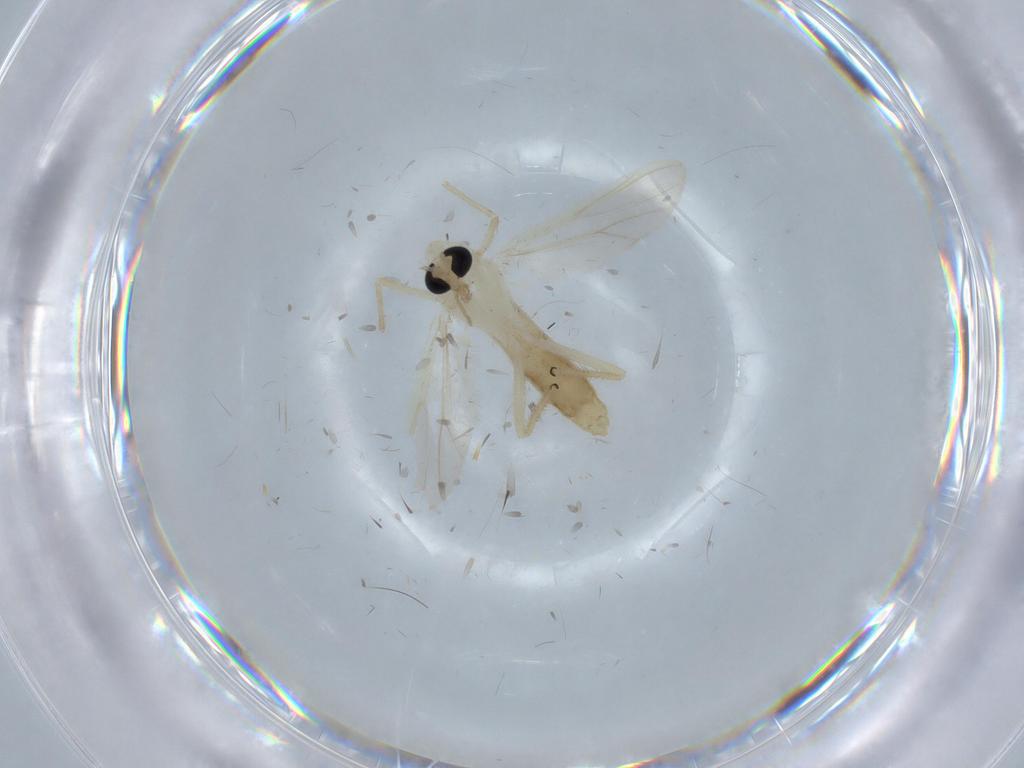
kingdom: Animalia
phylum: Arthropoda
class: Insecta
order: Diptera
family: Chironomidae
